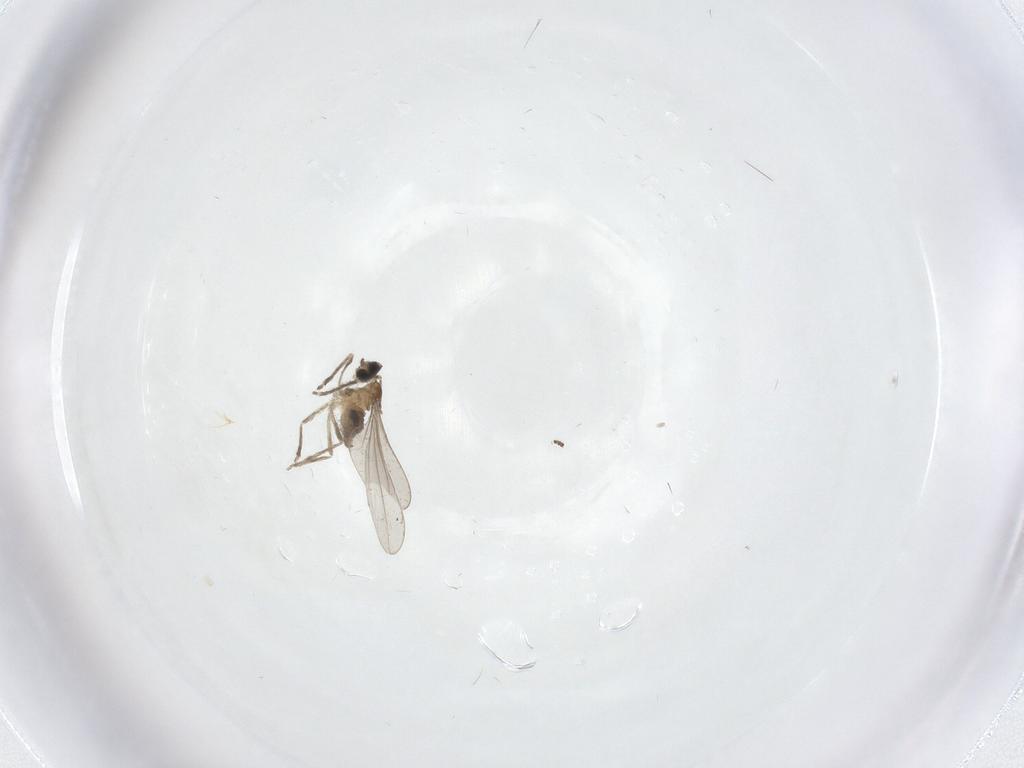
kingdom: Animalia
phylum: Arthropoda
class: Insecta
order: Diptera
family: Cecidomyiidae
